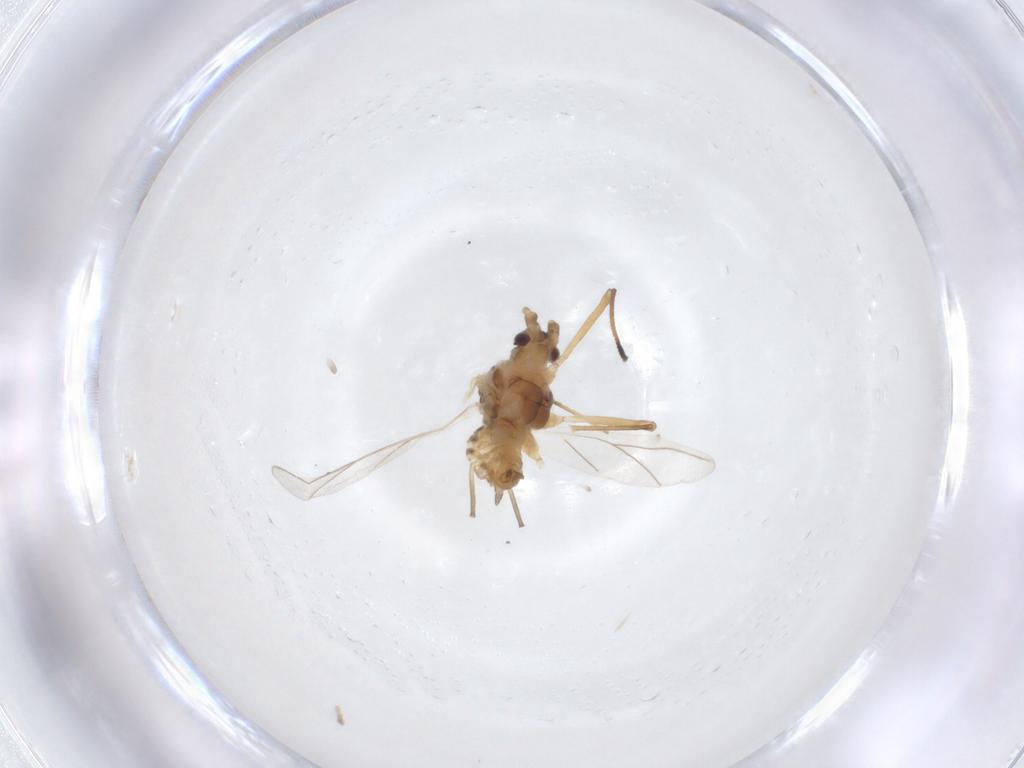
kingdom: Animalia
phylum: Arthropoda
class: Insecta
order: Hemiptera
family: Aphididae
